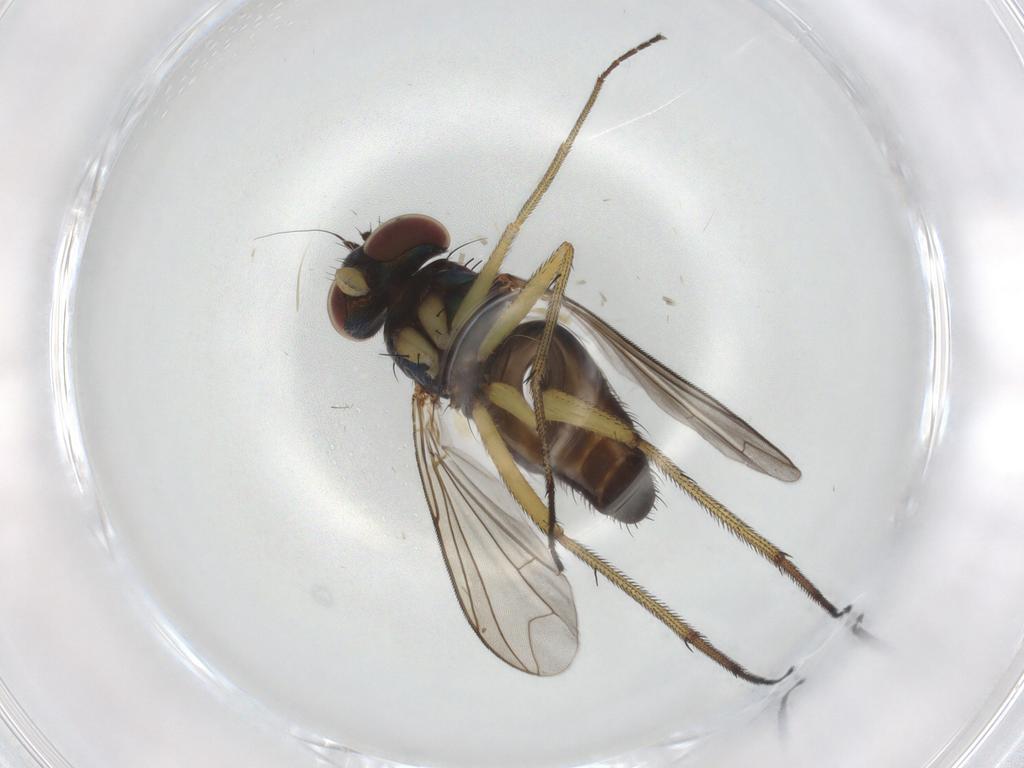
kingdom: Animalia
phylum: Arthropoda
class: Insecta
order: Diptera
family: Dolichopodidae
